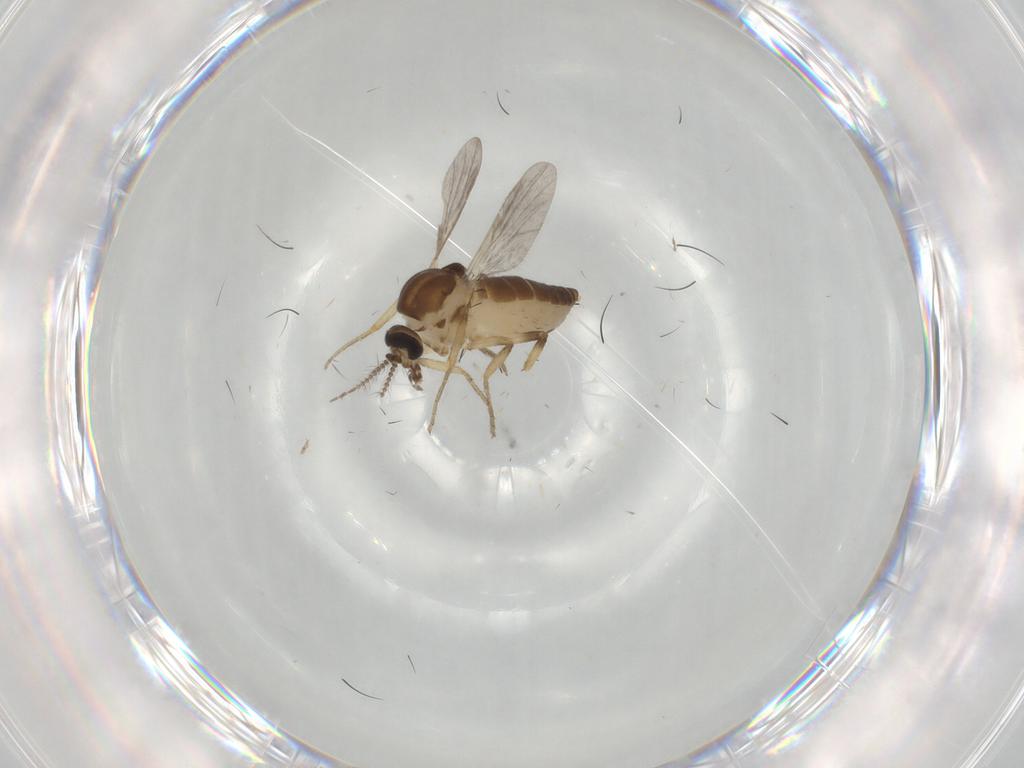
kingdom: Animalia
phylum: Arthropoda
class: Insecta
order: Diptera
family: Ceratopogonidae
